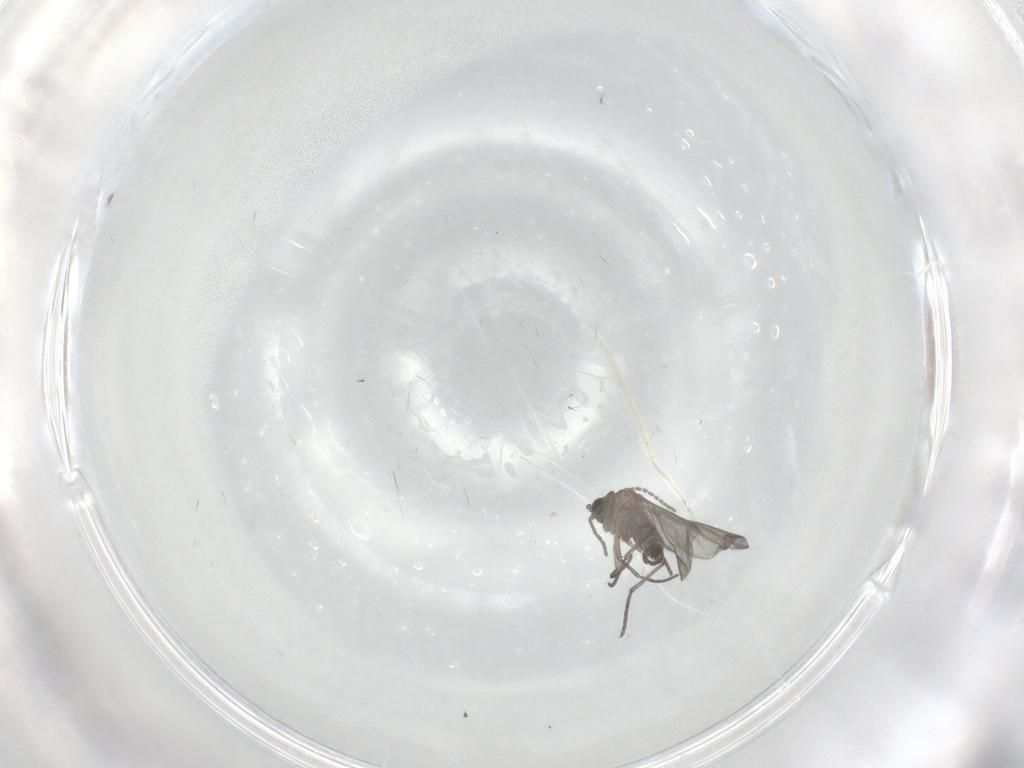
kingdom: Animalia
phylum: Arthropoda
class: Insecta
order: Diptera
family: Sciaridae
